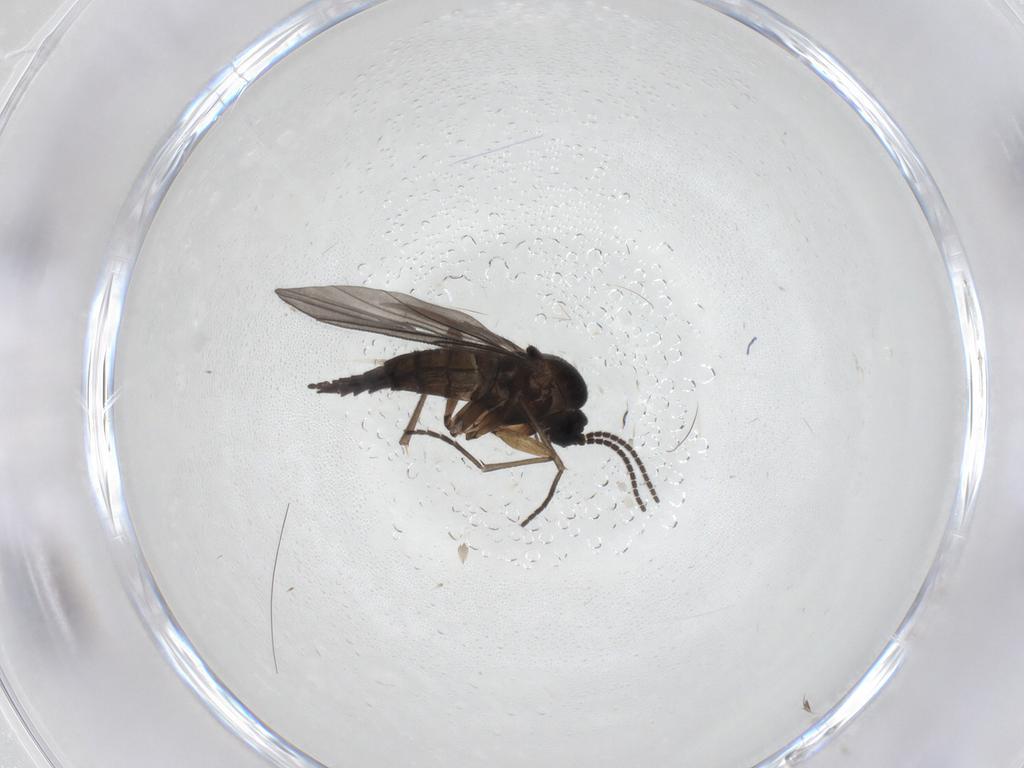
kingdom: Animalia
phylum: Arthropoda
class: Insecta
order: Diptera
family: Sciaridae
